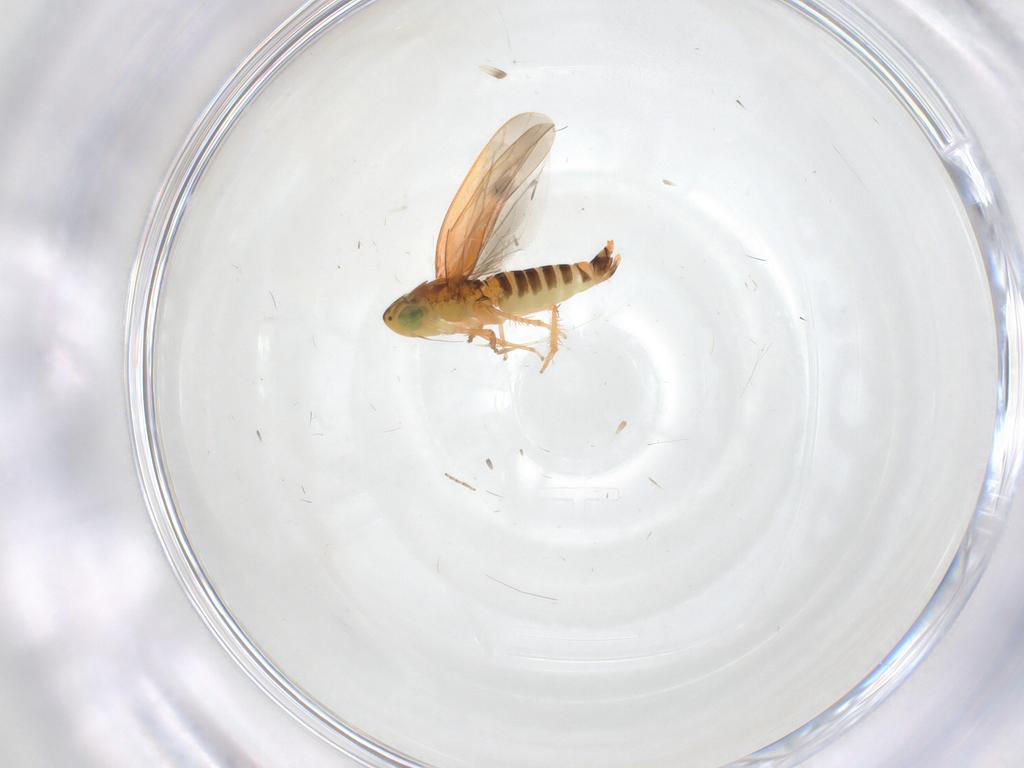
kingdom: Animalia
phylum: Arthropoda
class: Insecta
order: Hemiptera
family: Cicadellidae
